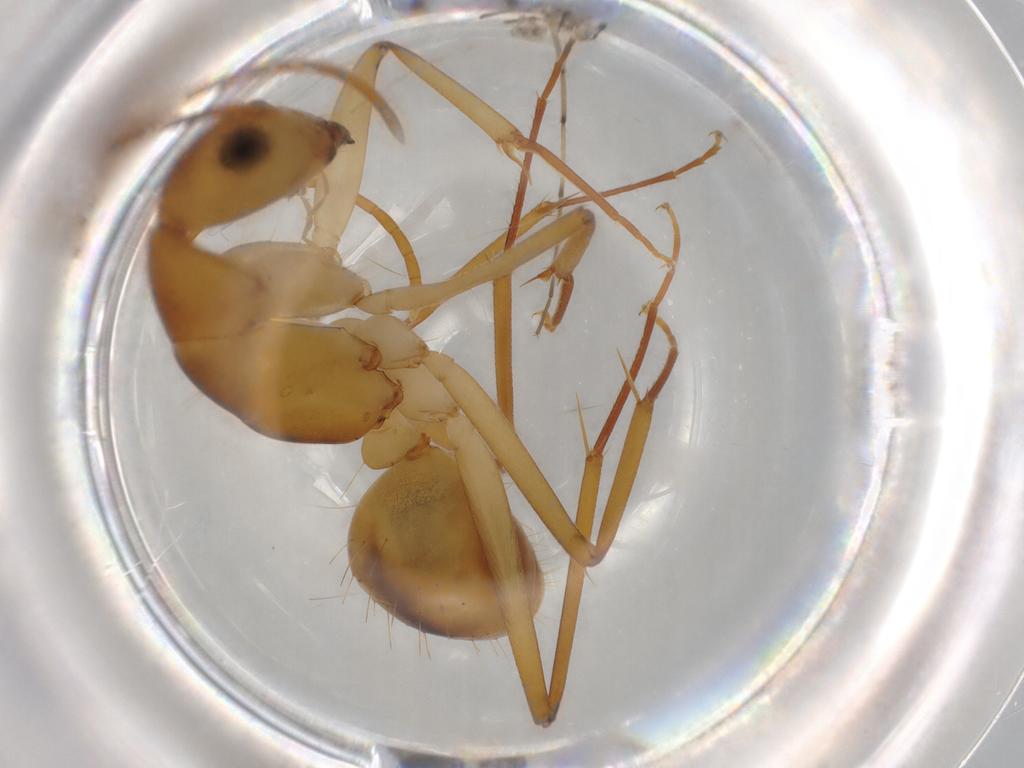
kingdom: Animalia
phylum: Arthropoda
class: Insecta
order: Hymenoptera
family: Formicidae
